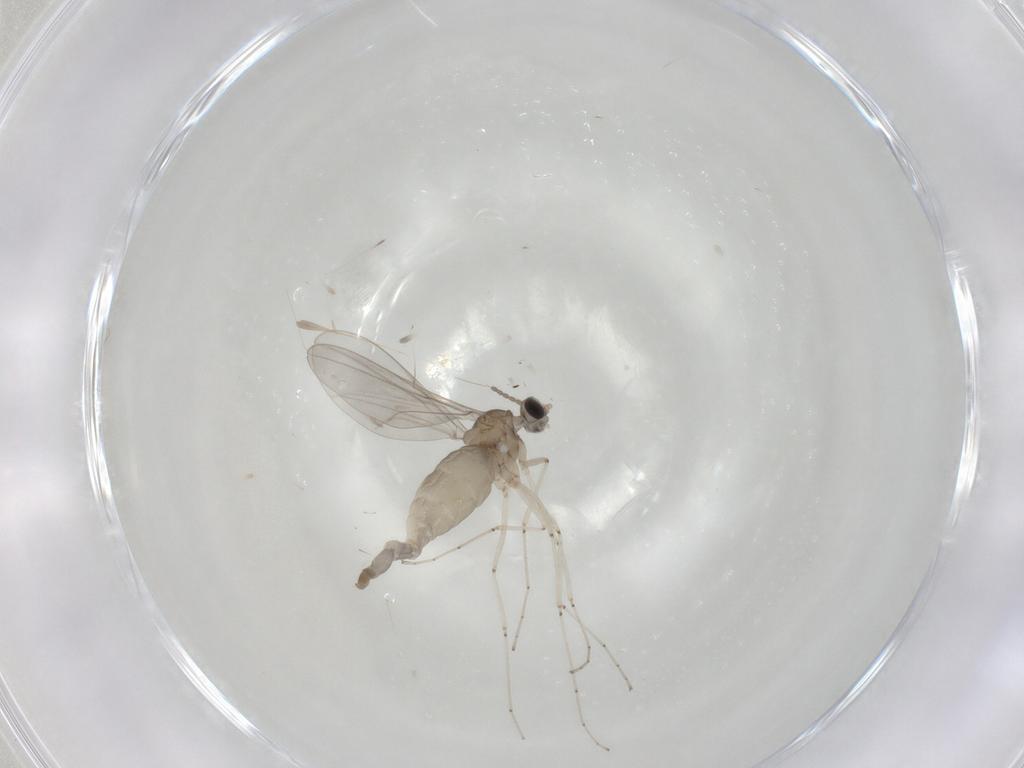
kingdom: Animalia
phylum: Arthropoda
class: Insecta
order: Diptera
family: Cecidomyiidae
